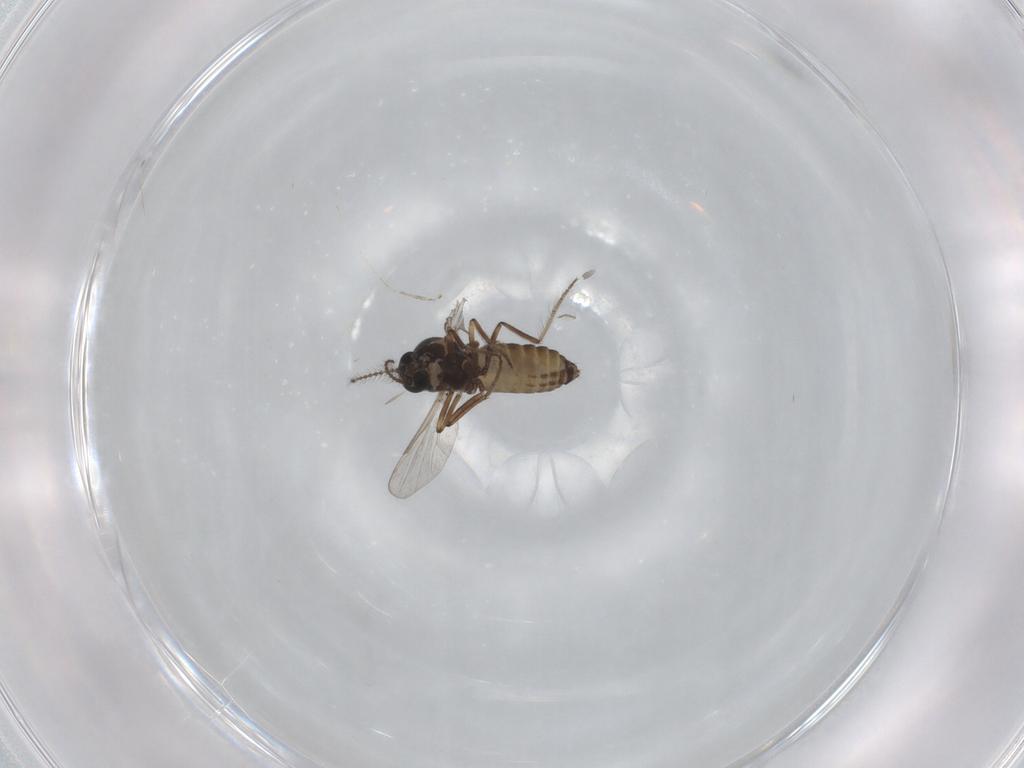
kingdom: Animalia
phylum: Arthropoda
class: Insecta
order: Diptera
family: Ceratopogonidae
